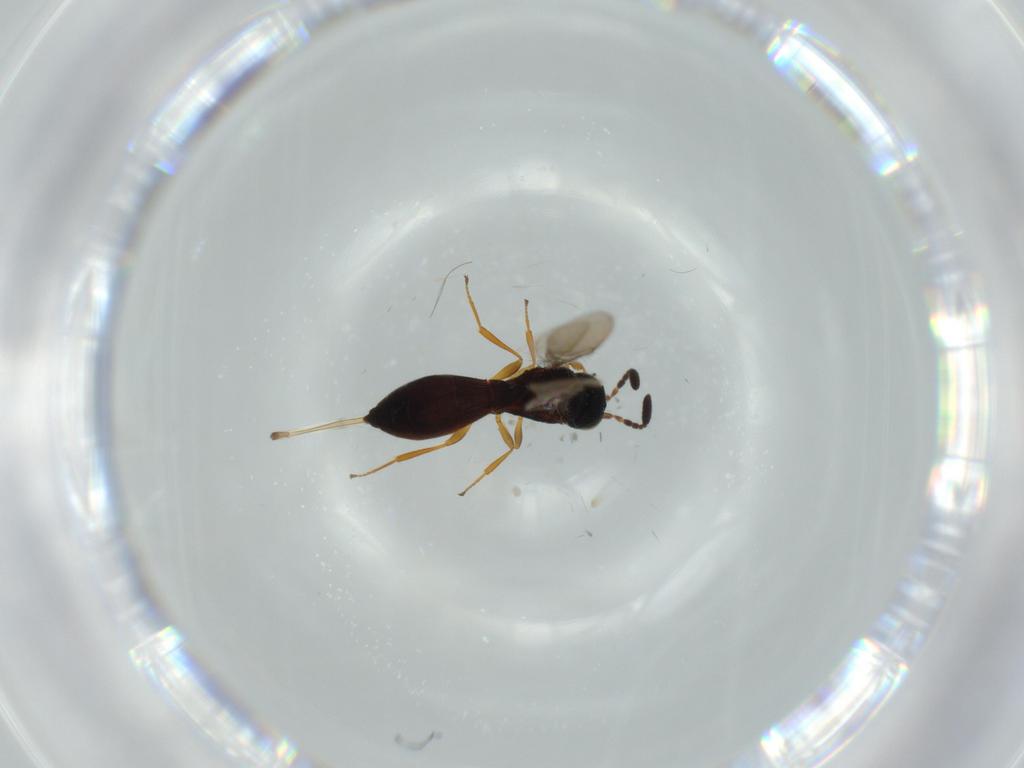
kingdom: Animalia
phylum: Arthropoda
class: Insecta
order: Hymenoptera
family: Scelionidae
